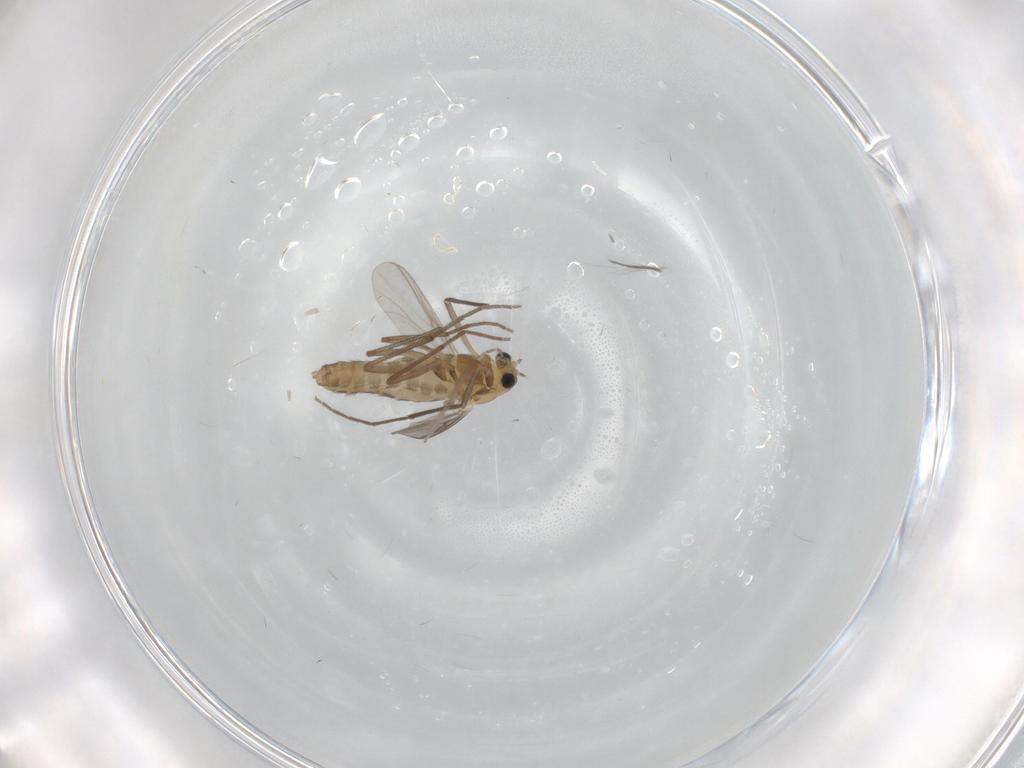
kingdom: Animalia
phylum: Arthropoda
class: Insecta
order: Diptera
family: Chironomidae
